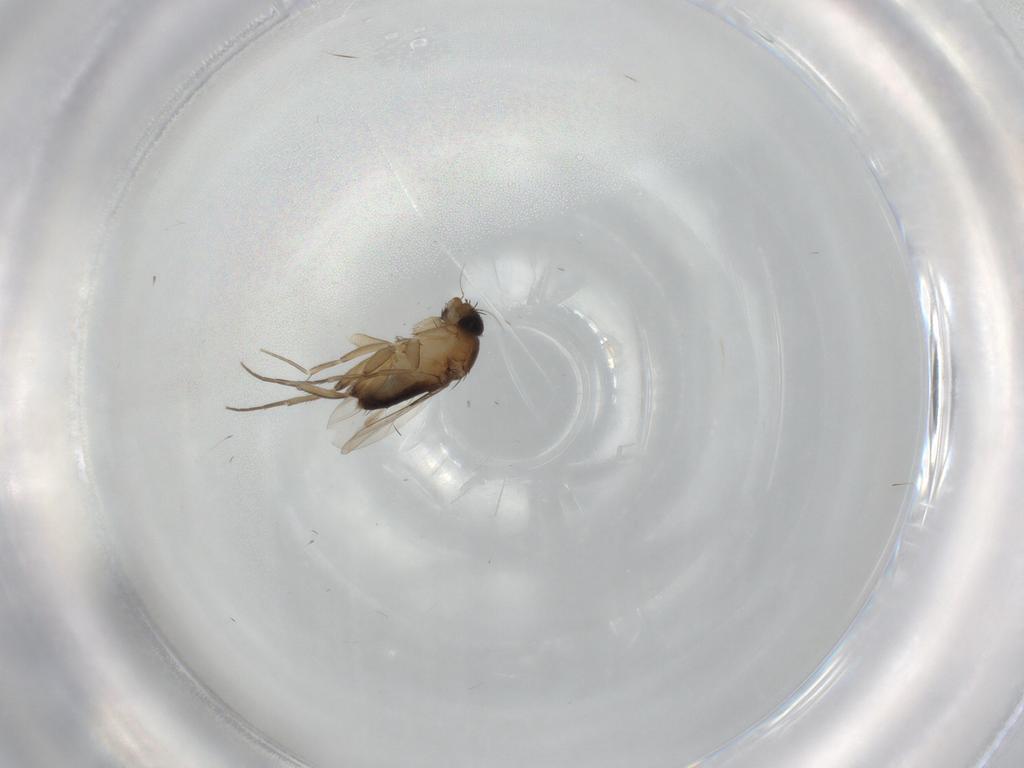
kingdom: Animalia
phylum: Arthropoda
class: Insecta
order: Diptera
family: Phoridae
